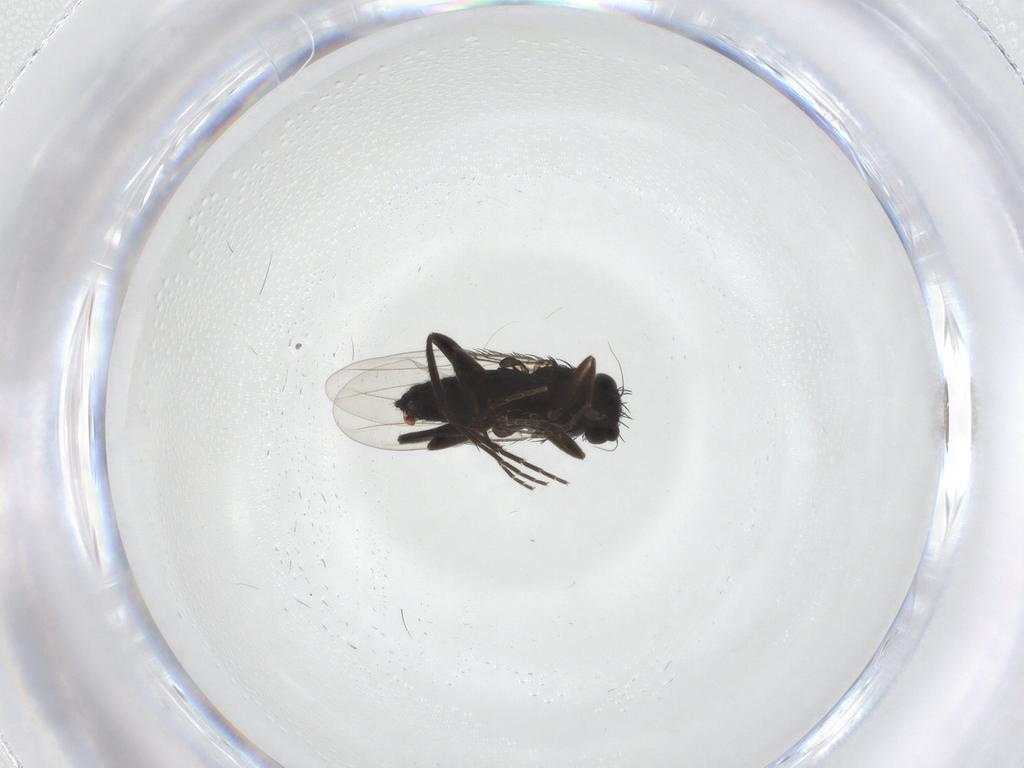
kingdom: Animalia
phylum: Arthropoda
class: Insecta
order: Diptera
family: Phoridae
